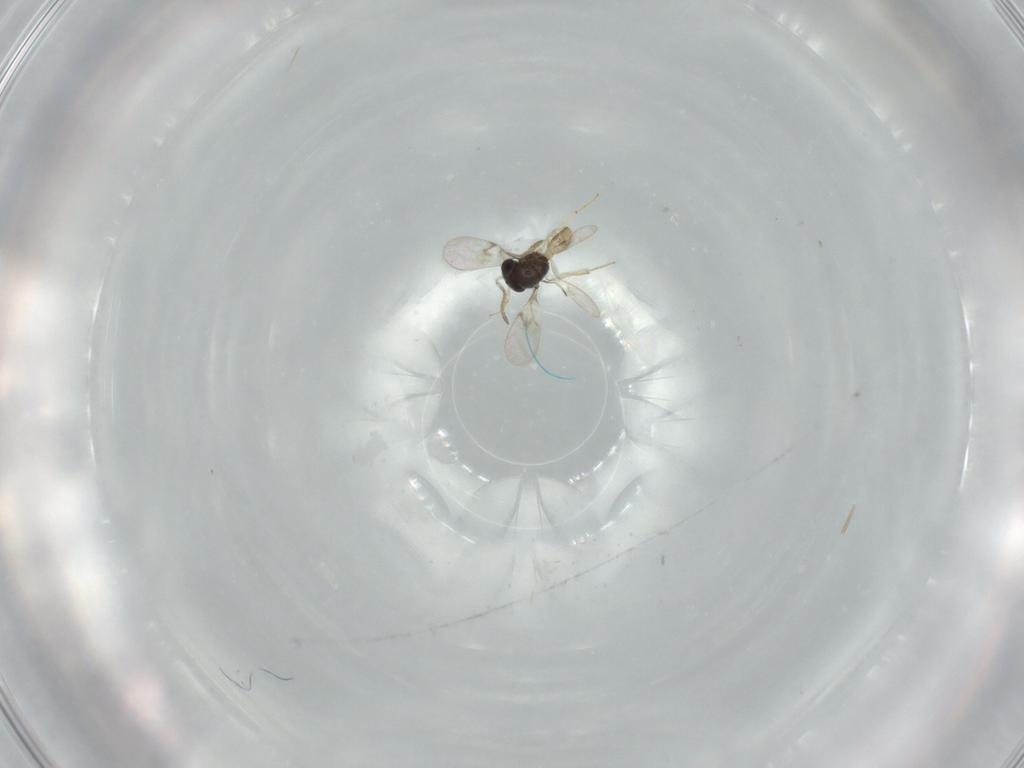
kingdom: Animalia
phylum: Arthropoda
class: Insecta
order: Hymenoptera
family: Scelionidae
